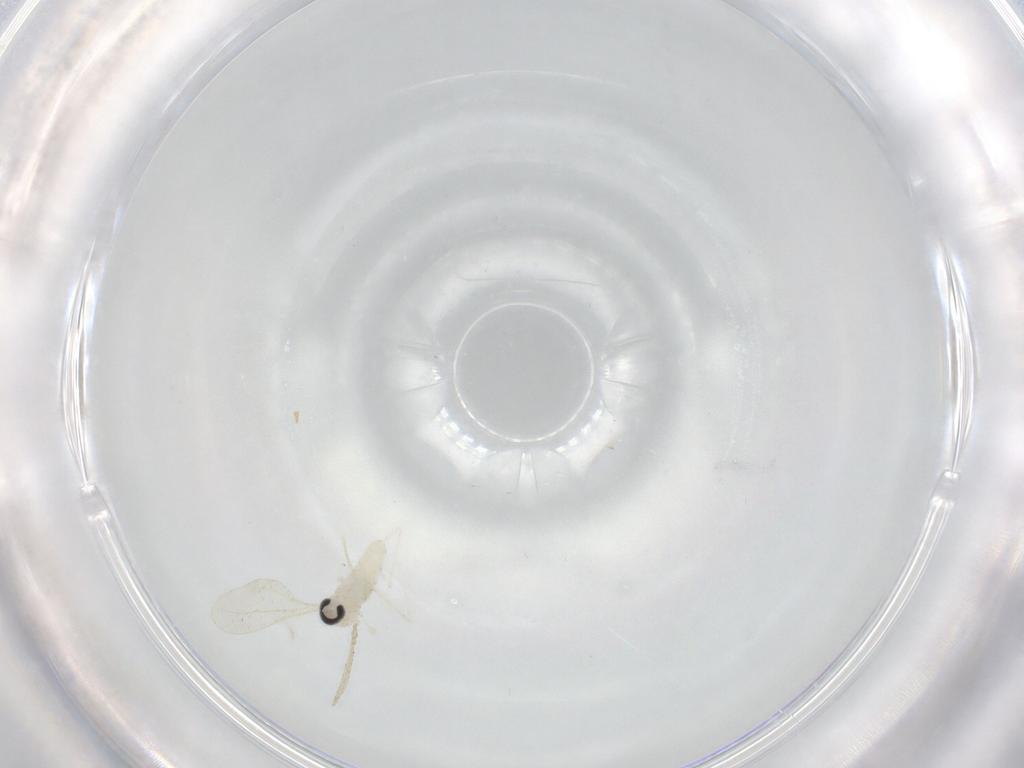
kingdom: Animalia
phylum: Arthropoda
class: Insecta
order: Diptera
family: Cecidomyiidae
